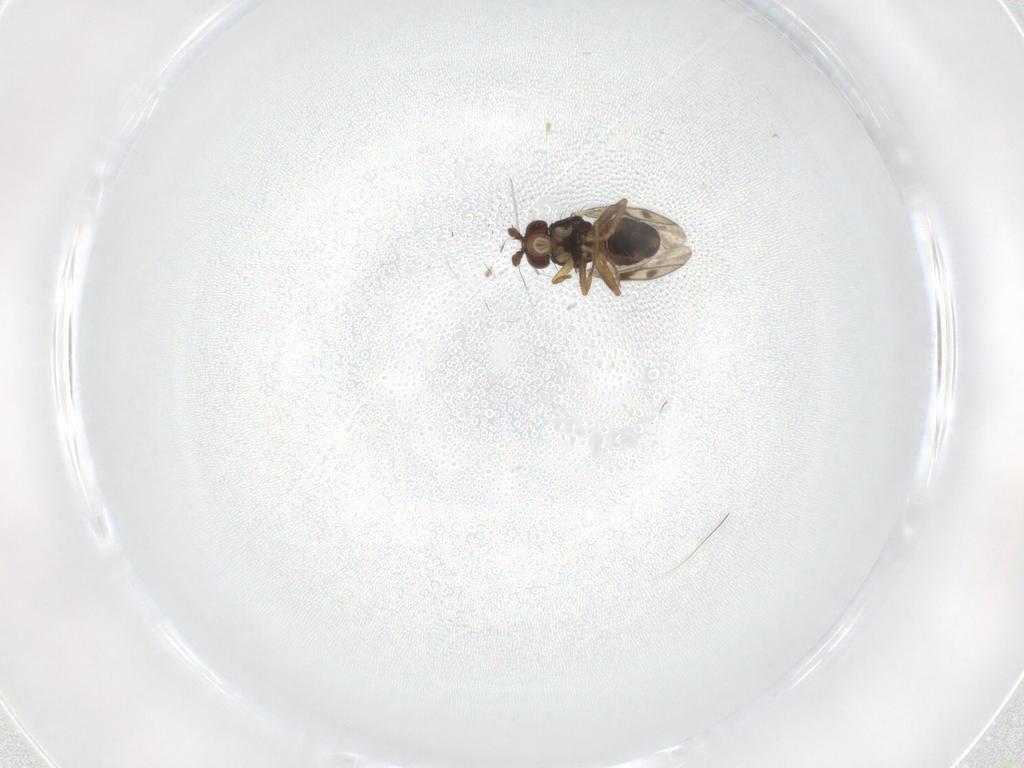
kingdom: Animalia
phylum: Arthropoda
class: Insecta
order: Diptera
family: Sphaeroceridae
